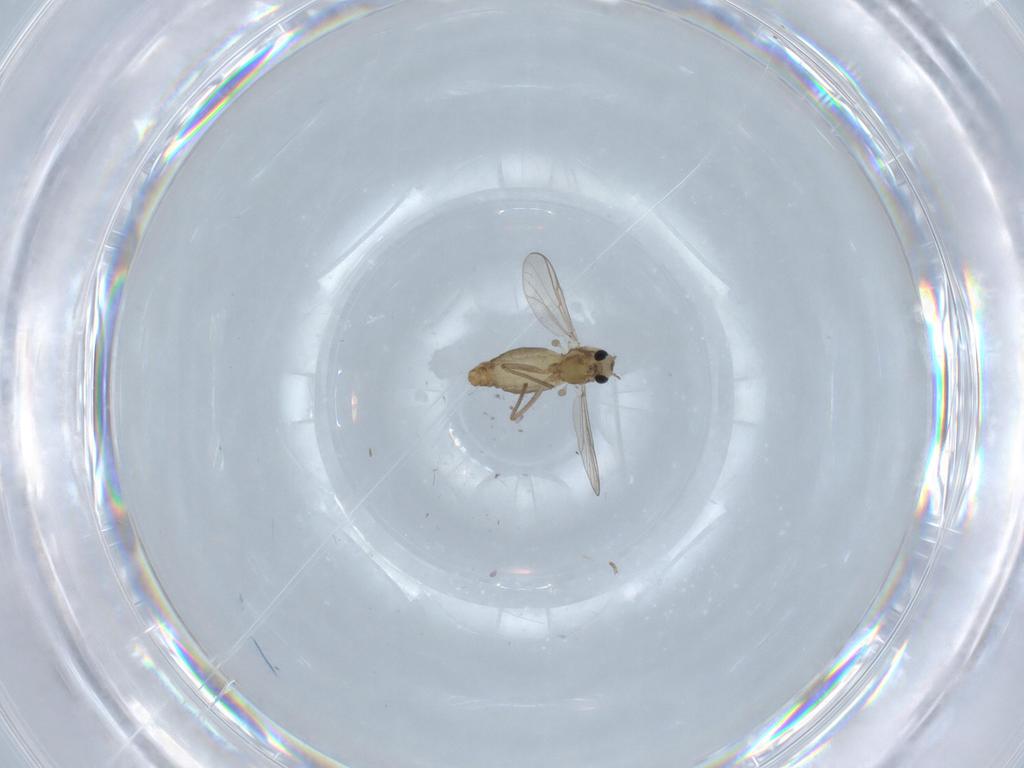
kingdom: Animalia
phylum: Arthropoda
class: Insecta
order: Diptera
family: Chironomidae
